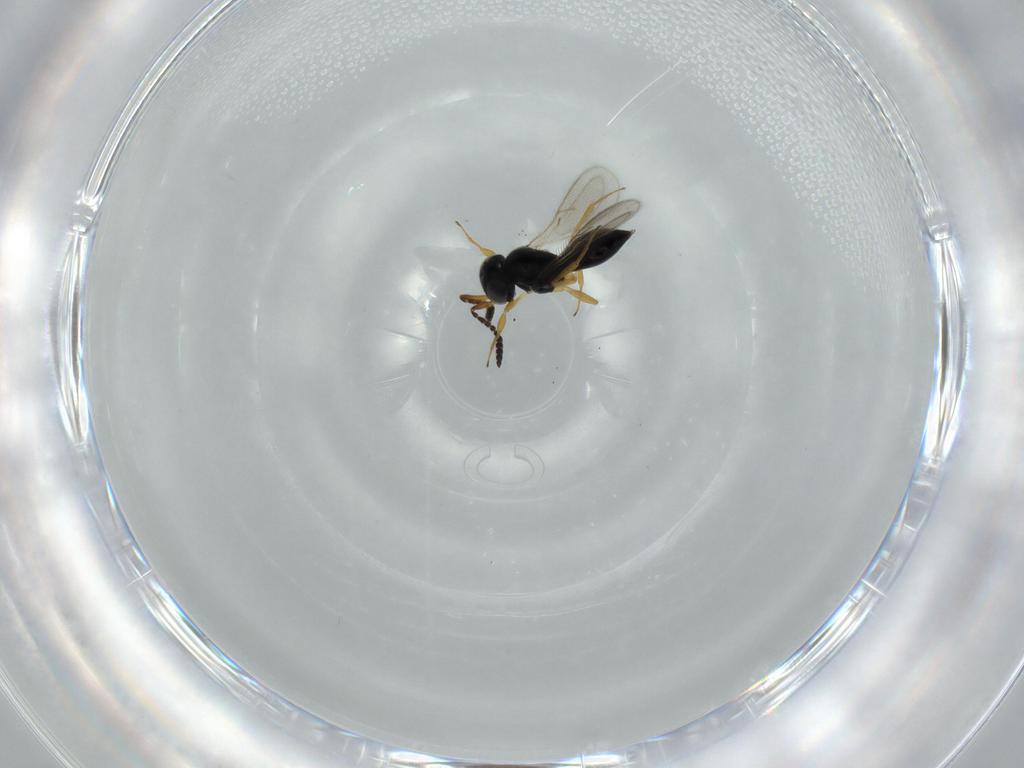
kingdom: Animalia
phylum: Arthropoda
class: Insecta
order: Hymenoptera
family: Scelionidae
